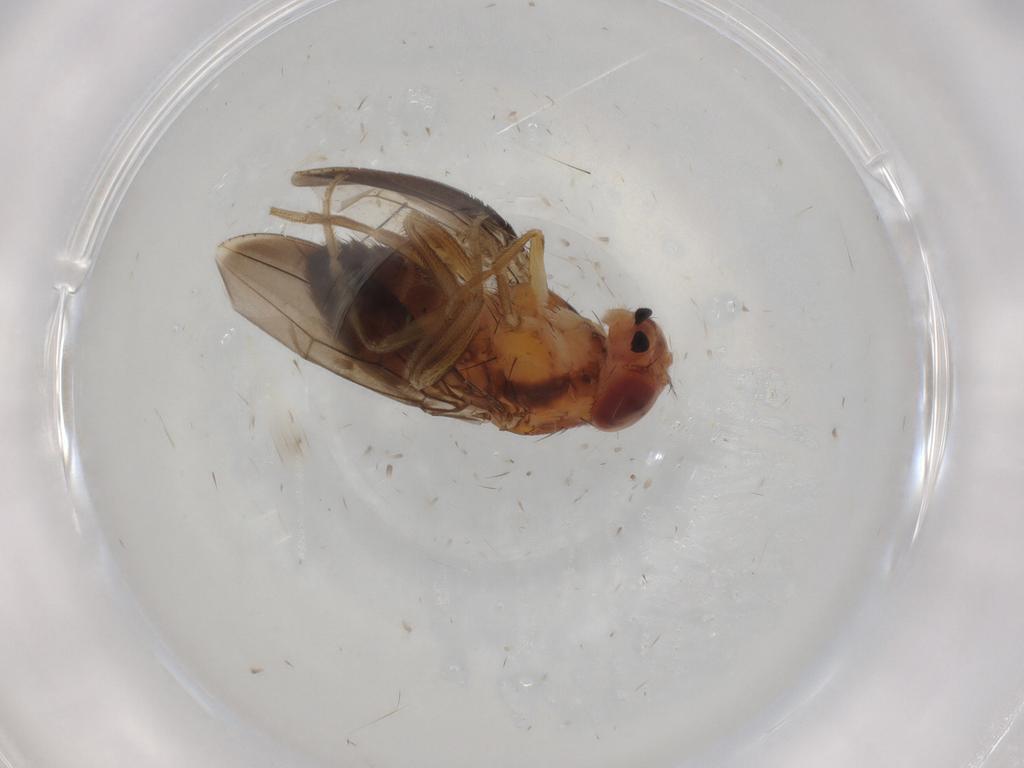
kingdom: Animalia
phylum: Arthropoda
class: Insecta
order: Diptera
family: Drosophilidae
